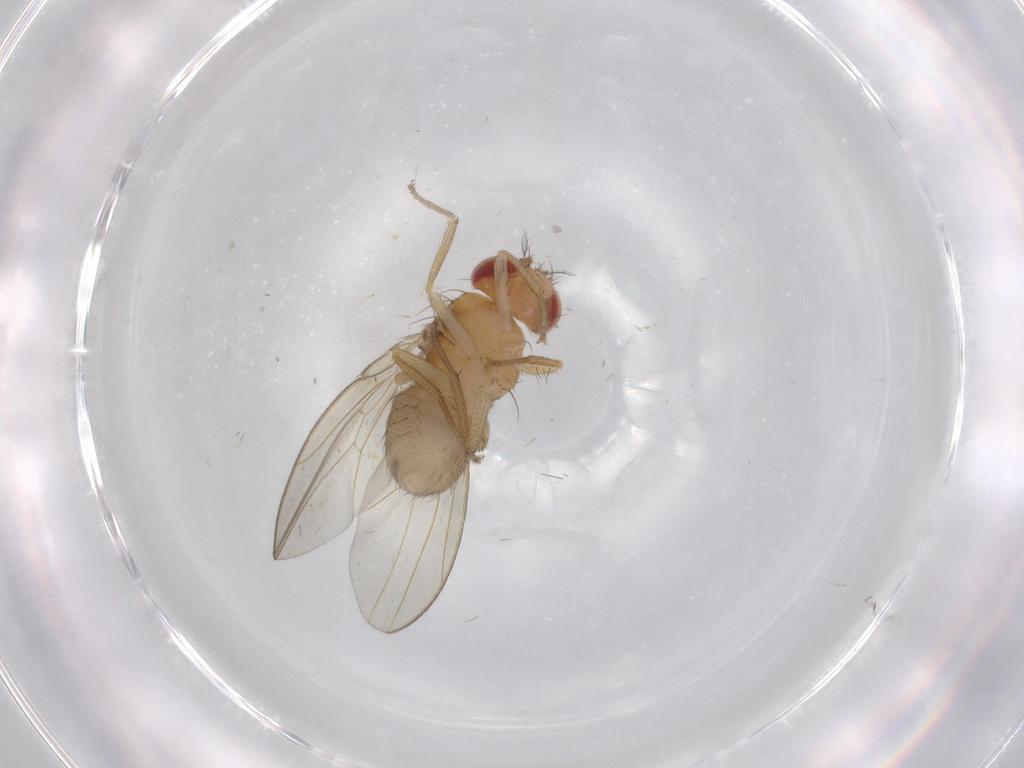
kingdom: Animalia
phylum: Arthropoda
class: Insecta
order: Diptera
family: Drosophilidae
